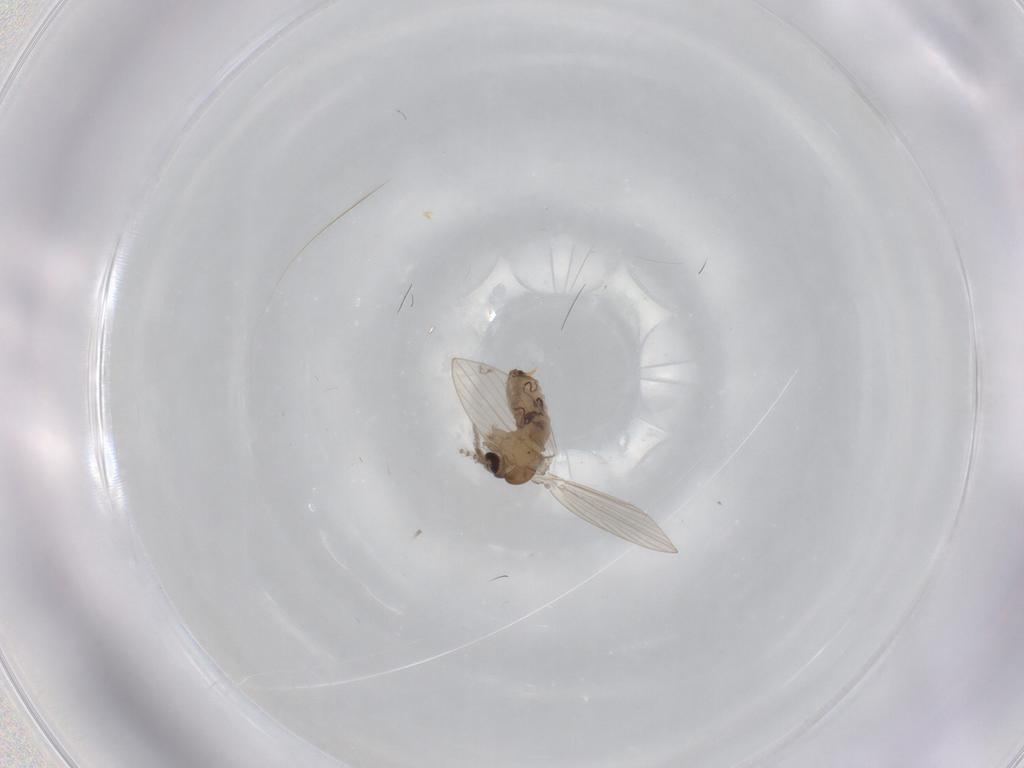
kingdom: Animalia
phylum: Arthropoda
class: Insecta
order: Diptera
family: Psychodidae
